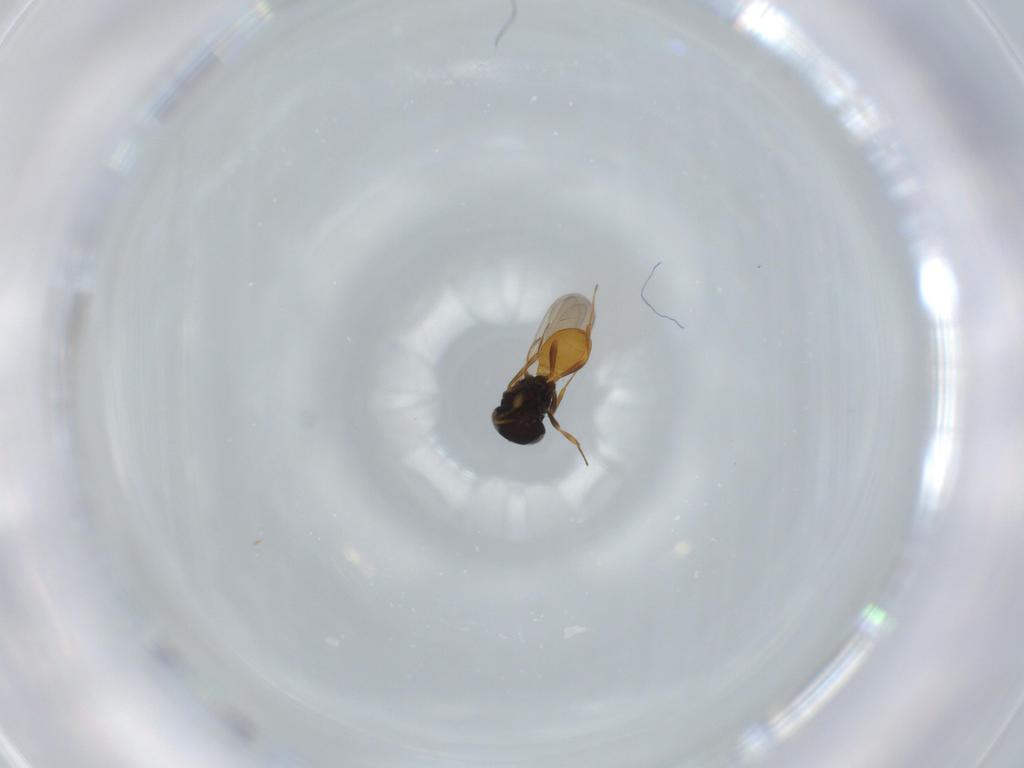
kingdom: Animalia
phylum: Arthropoda
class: Insecta
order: Hymenoptera
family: Scelionidae
